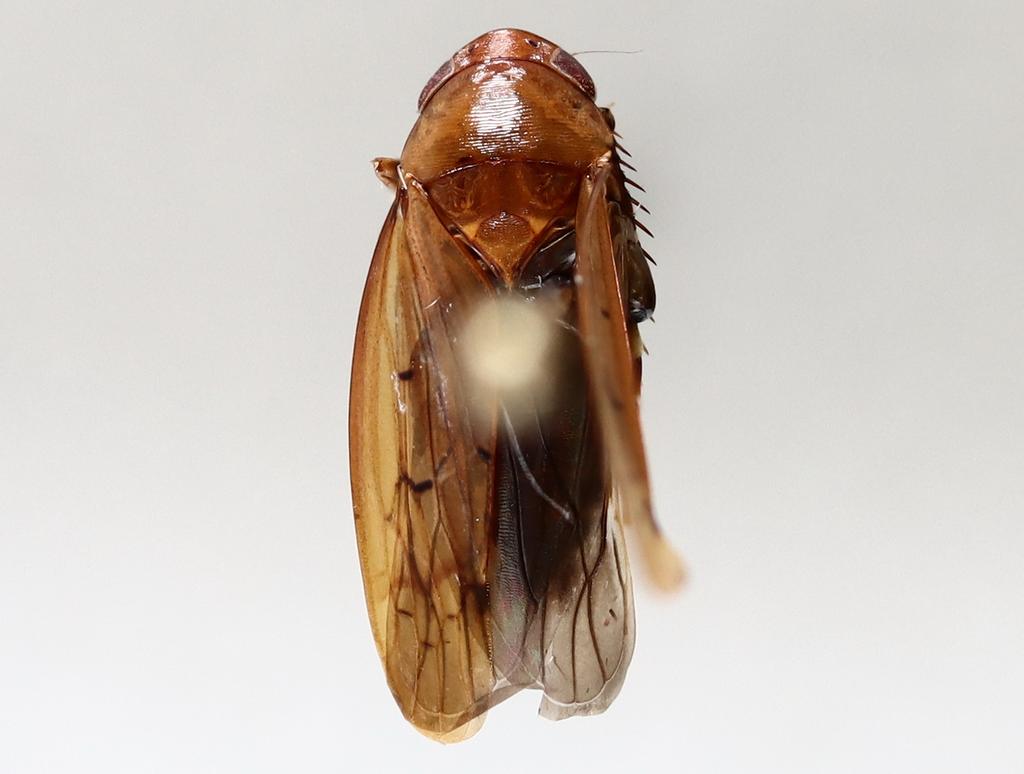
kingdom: Animalia
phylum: Arthropoda
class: Insecta
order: Diptera
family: Cecidomyiidae
